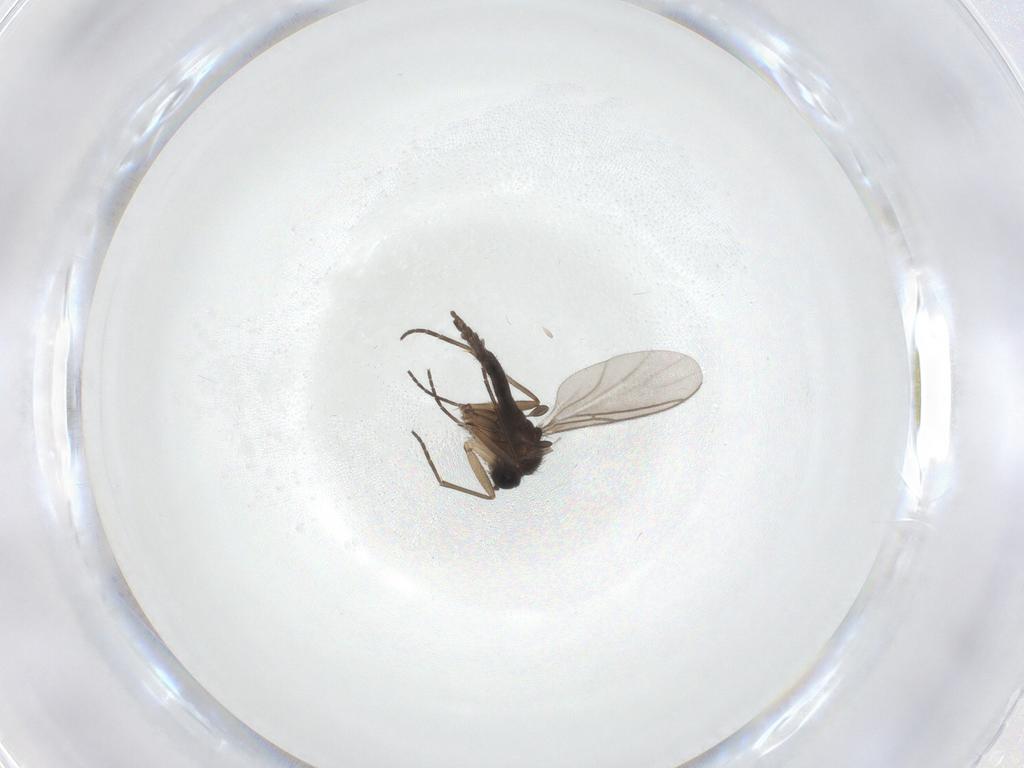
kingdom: Animalia
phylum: Arthropoda
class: Insecta
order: Diptera
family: Sciaridae
